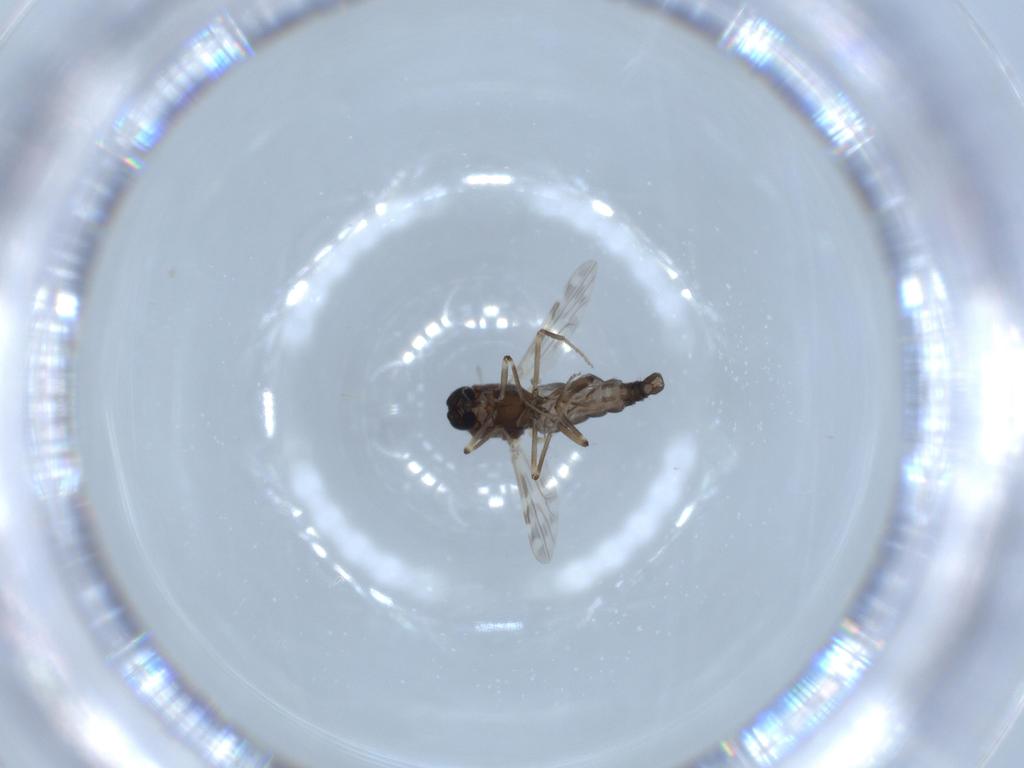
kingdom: Animalia
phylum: Arthropoda
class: Insecta
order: Diptera
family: Ceratopogonidae
